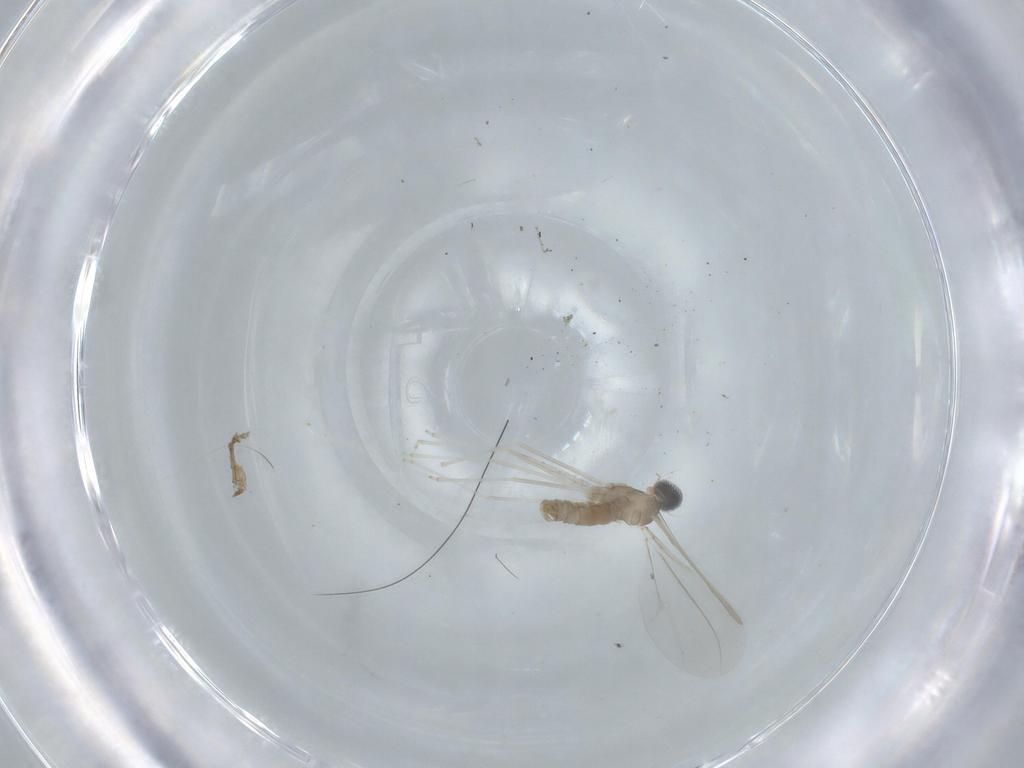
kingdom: Animalia
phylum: Arthropoda
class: Insecta
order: Diptera
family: Cecidomyiidae
